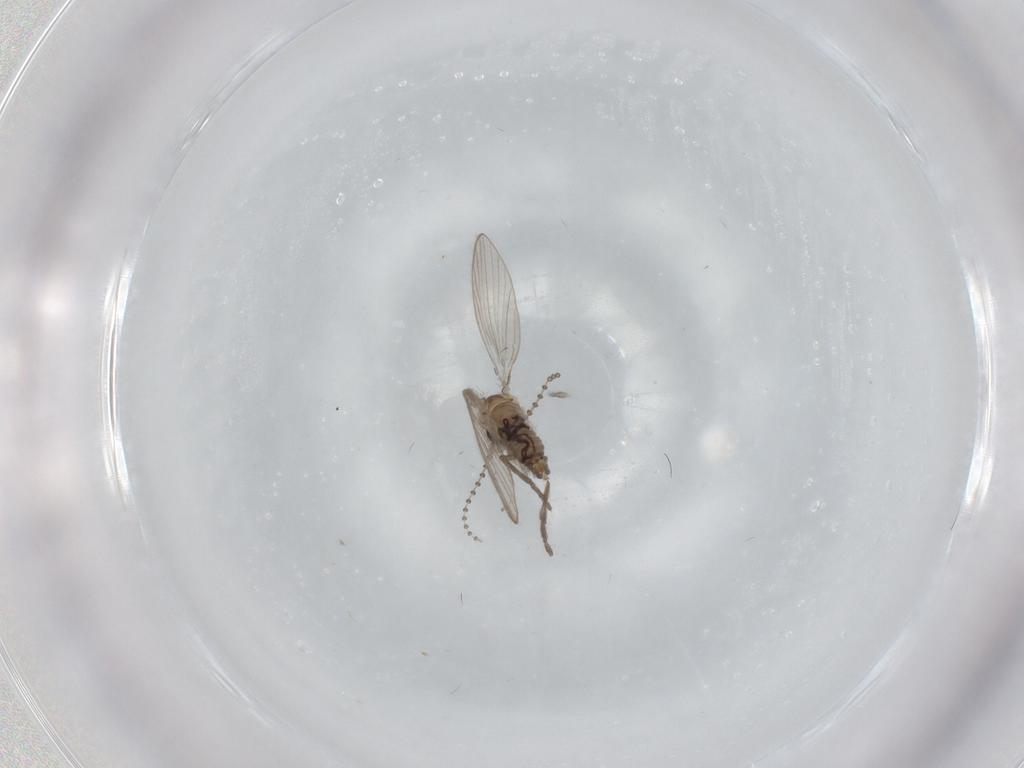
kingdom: Animalia
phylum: Arthropoda
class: Insecta
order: Diptera
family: Psychodidae
